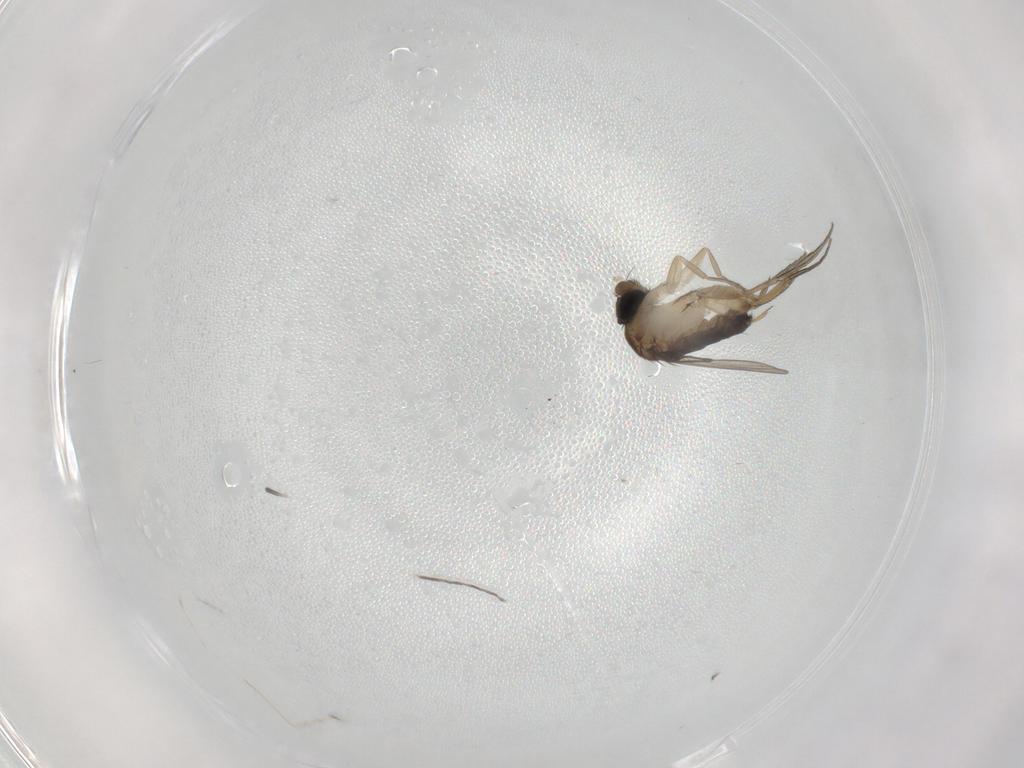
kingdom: Animalia
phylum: Arthropoda
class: Insecta
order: Diptera
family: Phoridae
